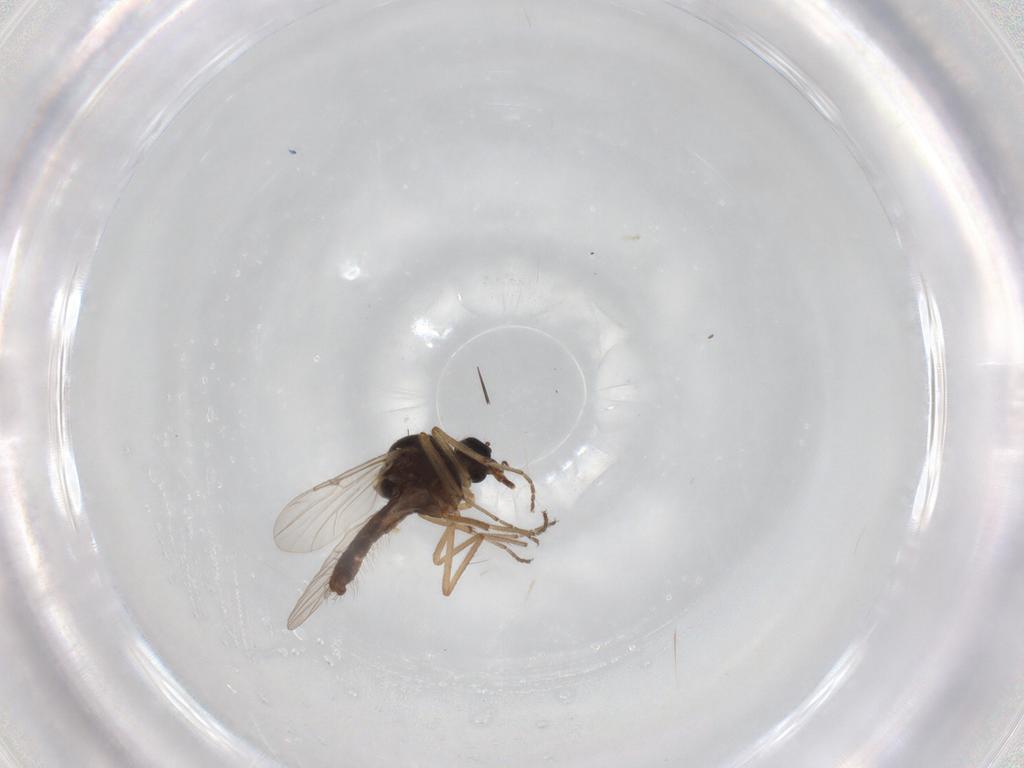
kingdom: Animalia
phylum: Arthropoda
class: Insecta
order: Diptera
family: Ceratopogonidae
